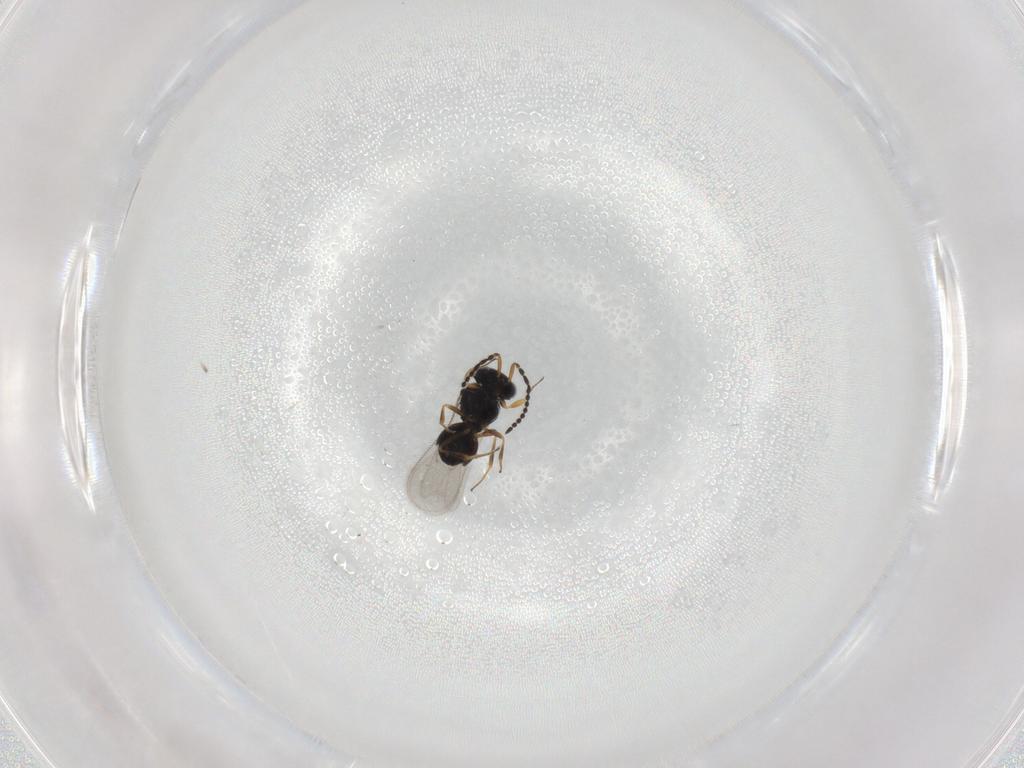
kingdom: Animalia
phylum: Arthropoda
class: Insecta
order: Hymenoptera
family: Scelionidae
